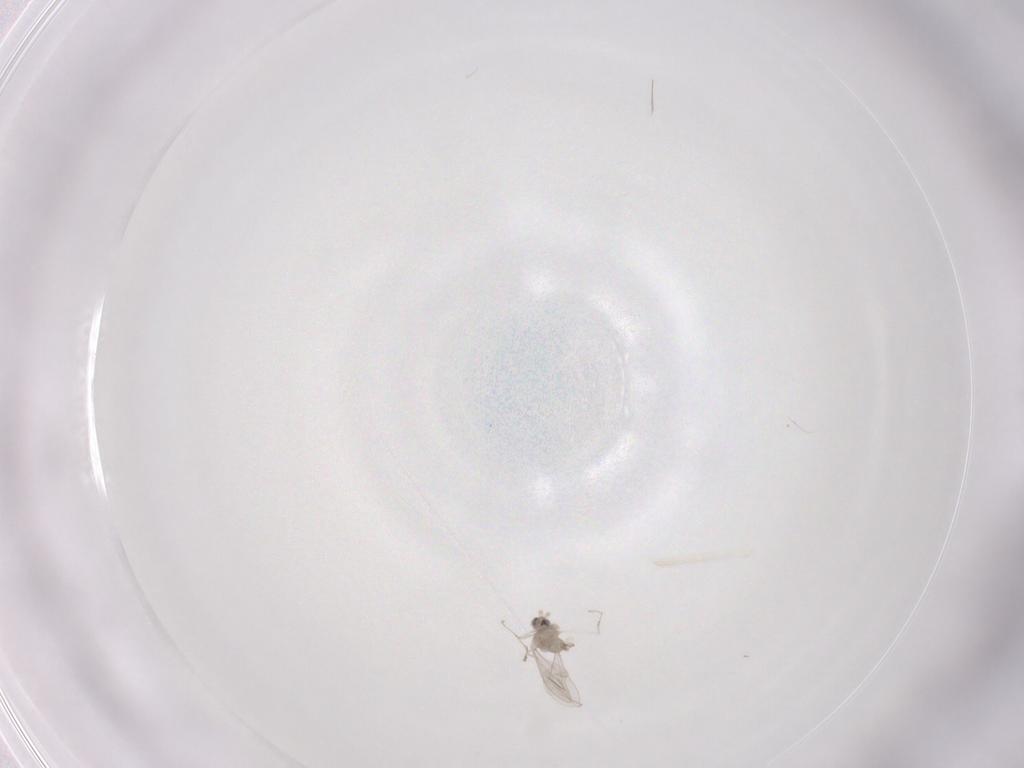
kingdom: Animalia
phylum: Arthropoda
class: Insecta
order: Diptera
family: Cecidomyiidae
